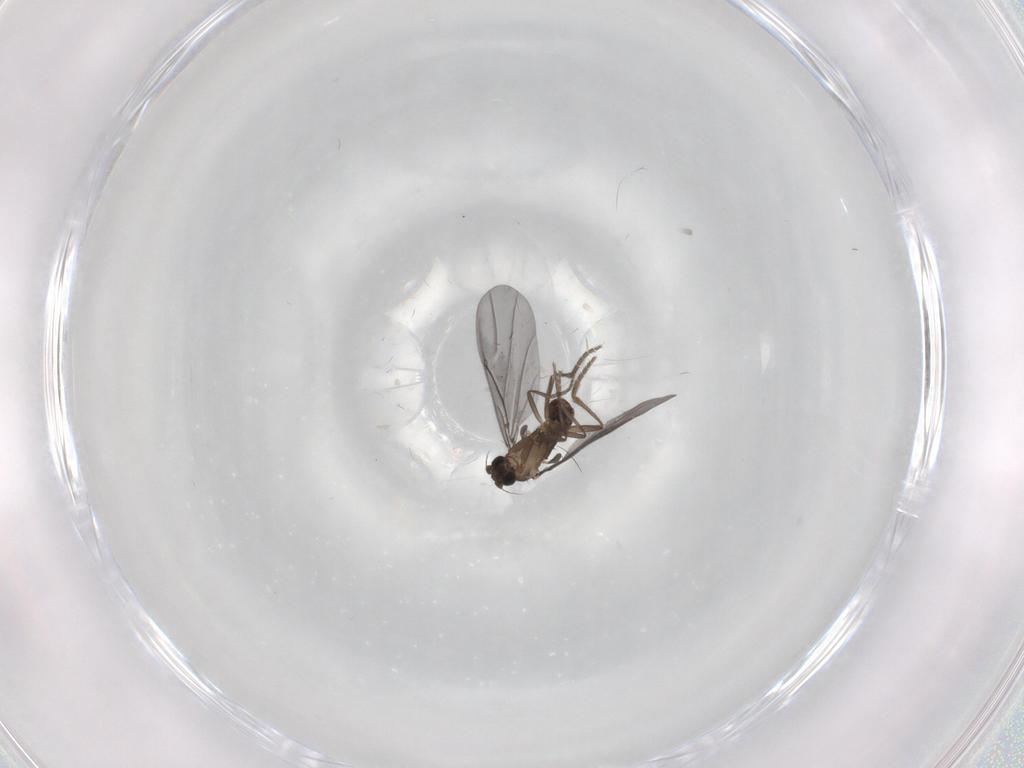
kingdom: Animalia
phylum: Arthropoda
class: Insecta
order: Diptera
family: Phoridae
